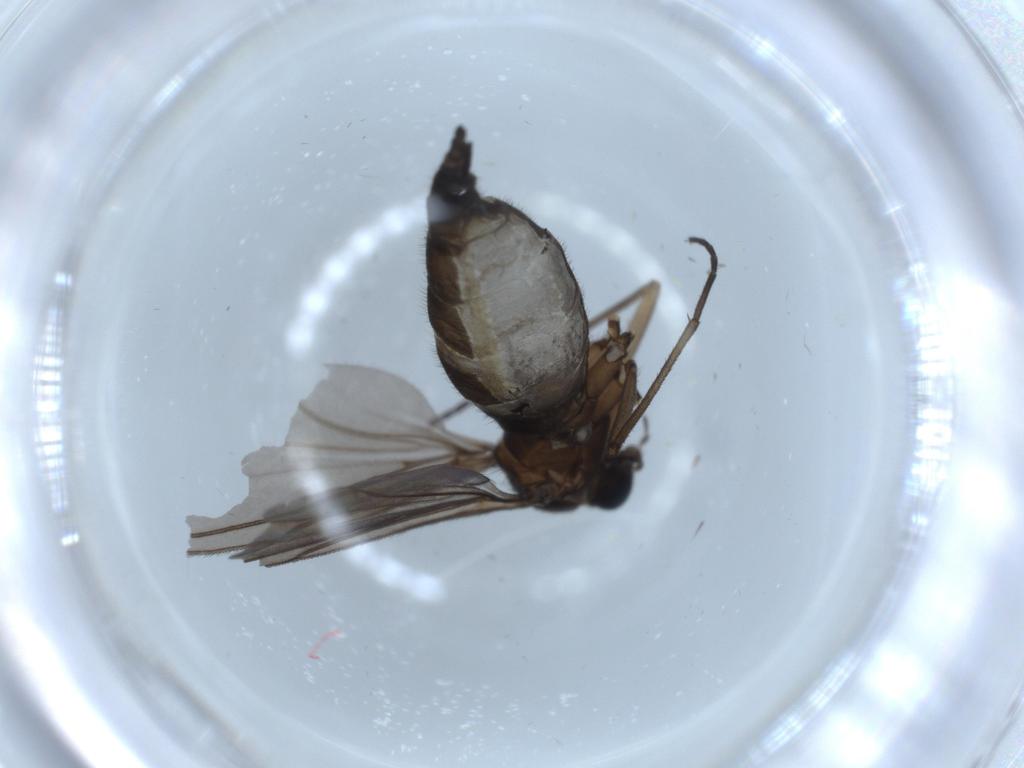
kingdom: Animalia
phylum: Arthropoda
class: Insecta
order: Diptera
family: Sciaridae
